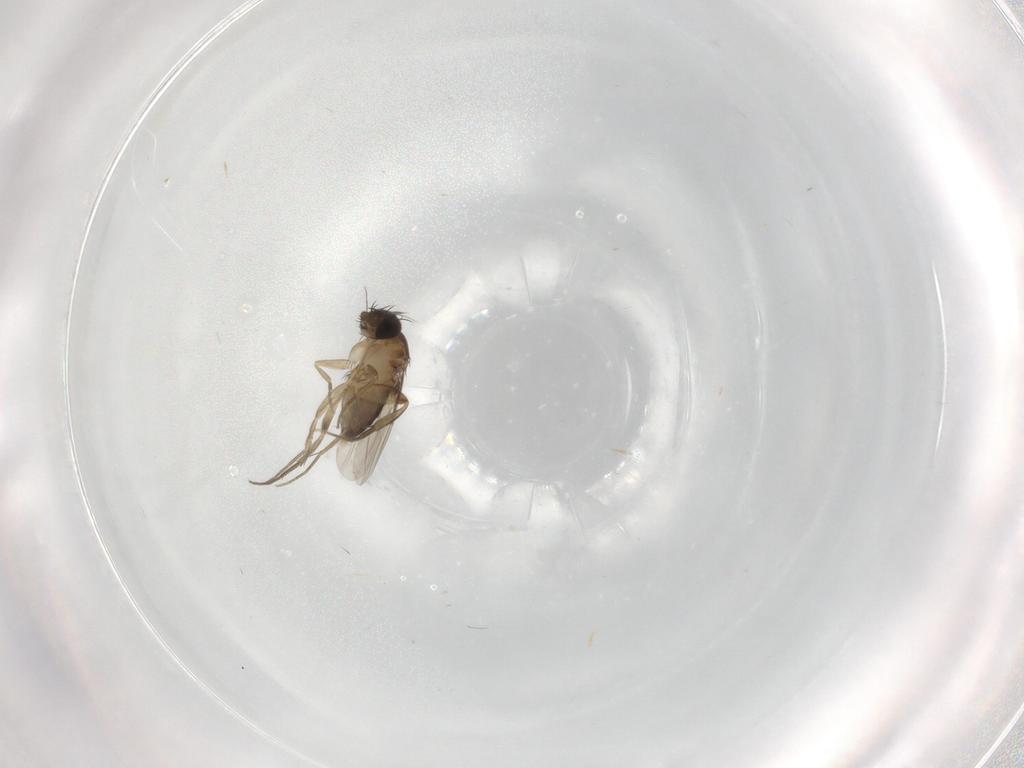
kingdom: Animalia
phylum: Arthropoda
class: Insecta
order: Diptera
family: Phoridae
